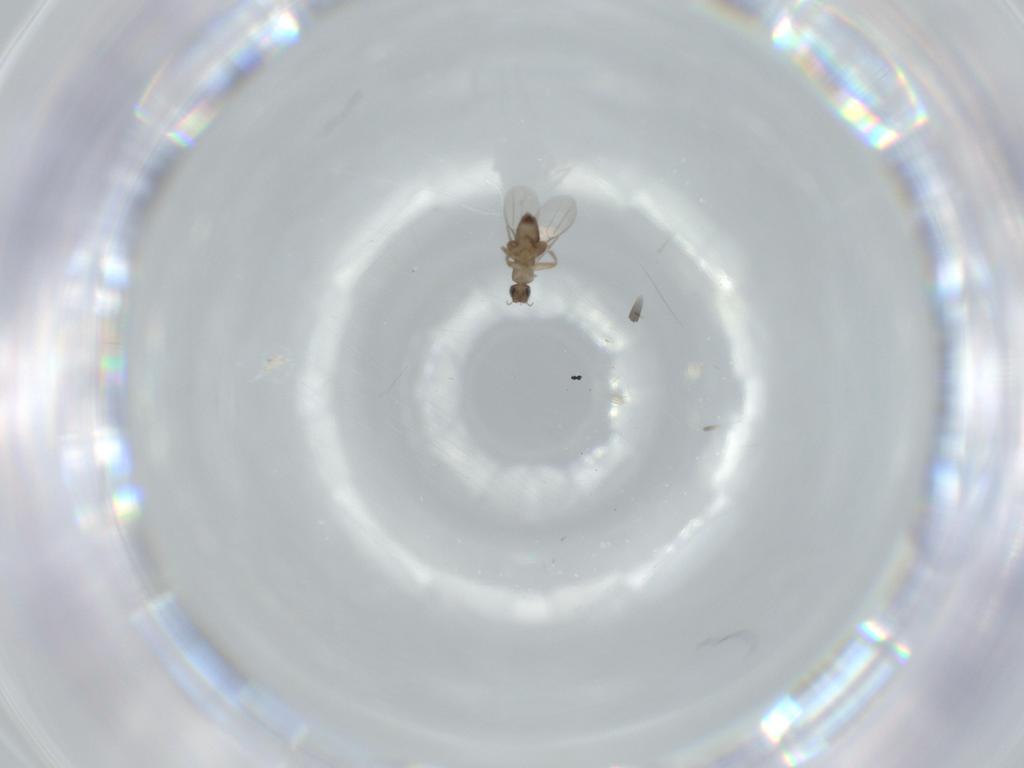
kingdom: Animalia
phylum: Arthropoda
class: Insecta
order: Diptera
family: Phoridae
